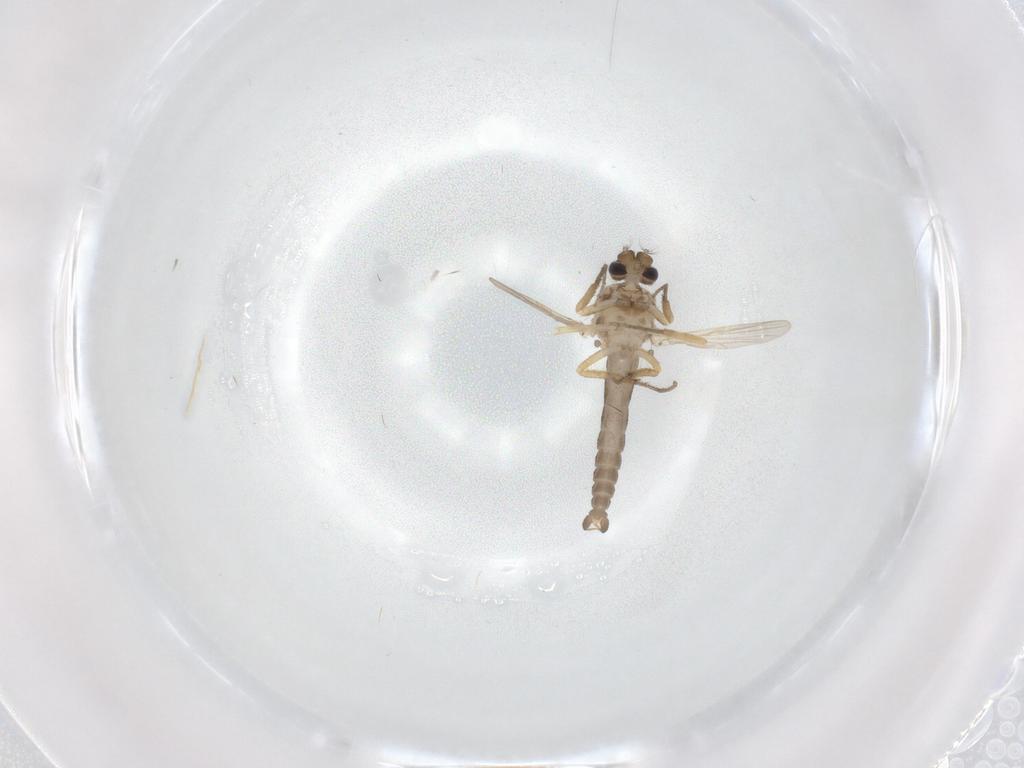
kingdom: Animalia
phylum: Arthropoda
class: Insecta
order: Diptera
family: Ceratopogonidae
